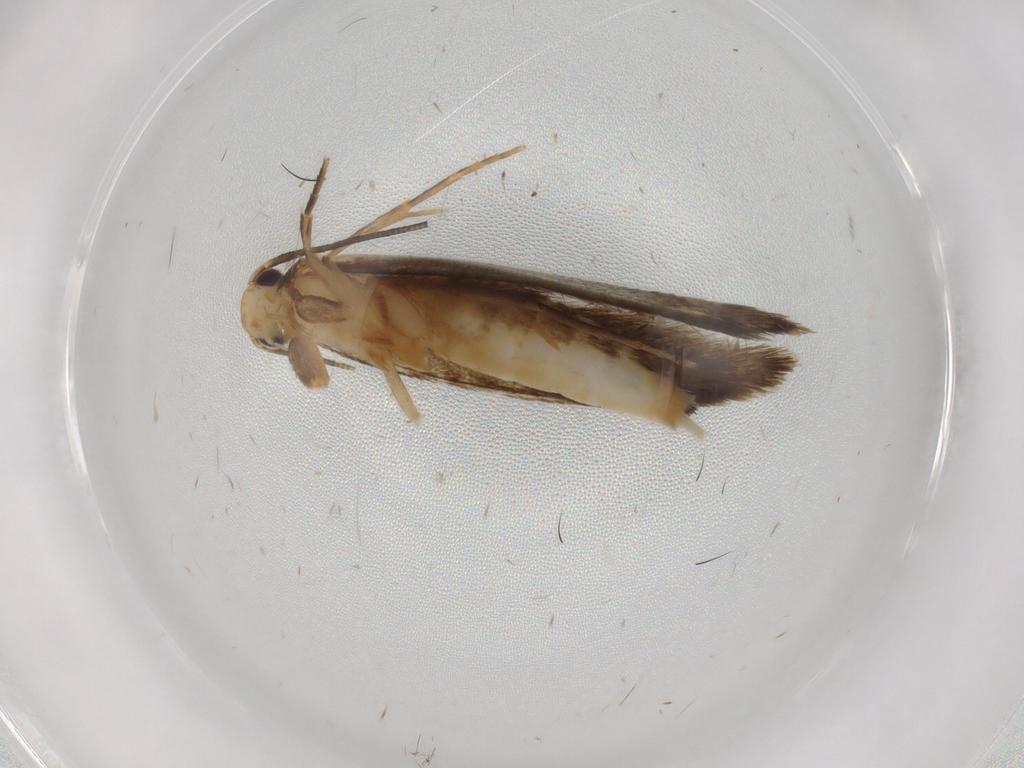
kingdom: Animalia
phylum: Arthropoda
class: Insecta
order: Lepidoptera
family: Tineidae
